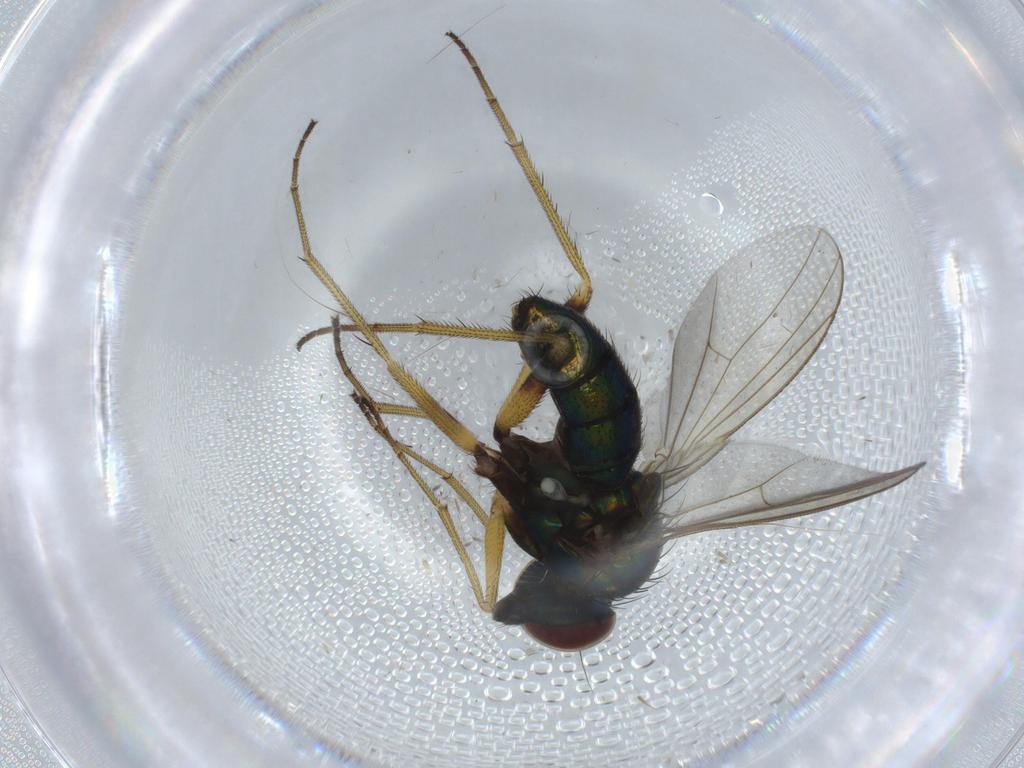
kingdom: Animalia
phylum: Arthropoda
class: Insecta
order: Diptera
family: Dolichopodidae
